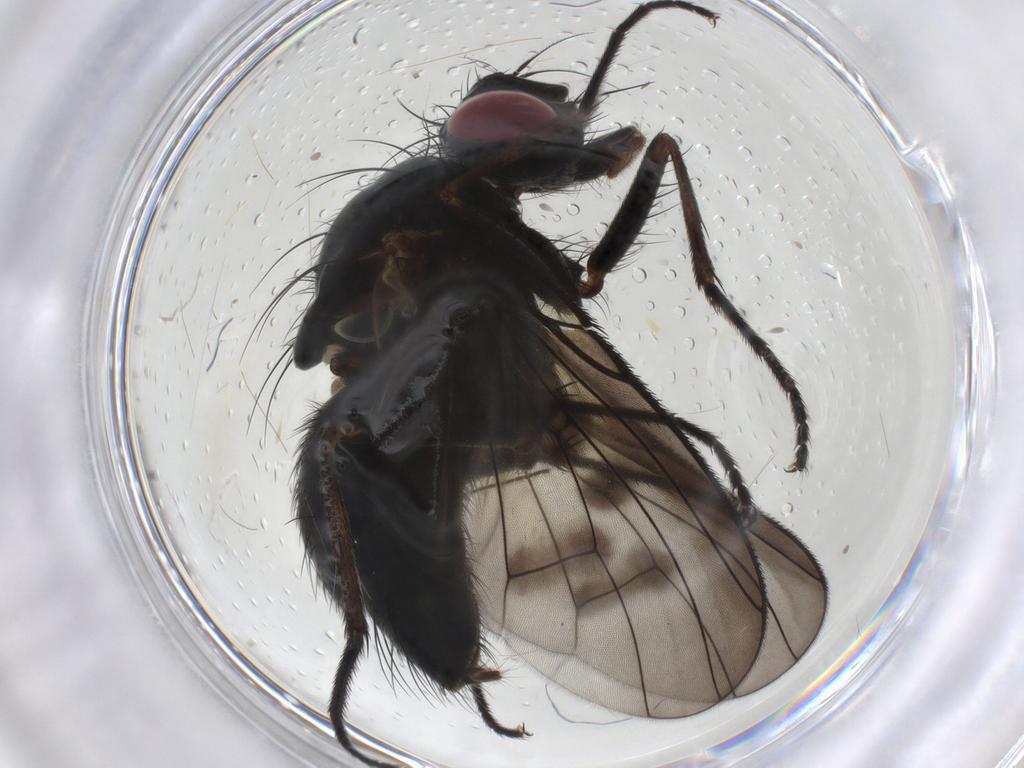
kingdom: Animalia
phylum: Arthropoda
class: Insecta
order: Diptera
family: Muscidae
